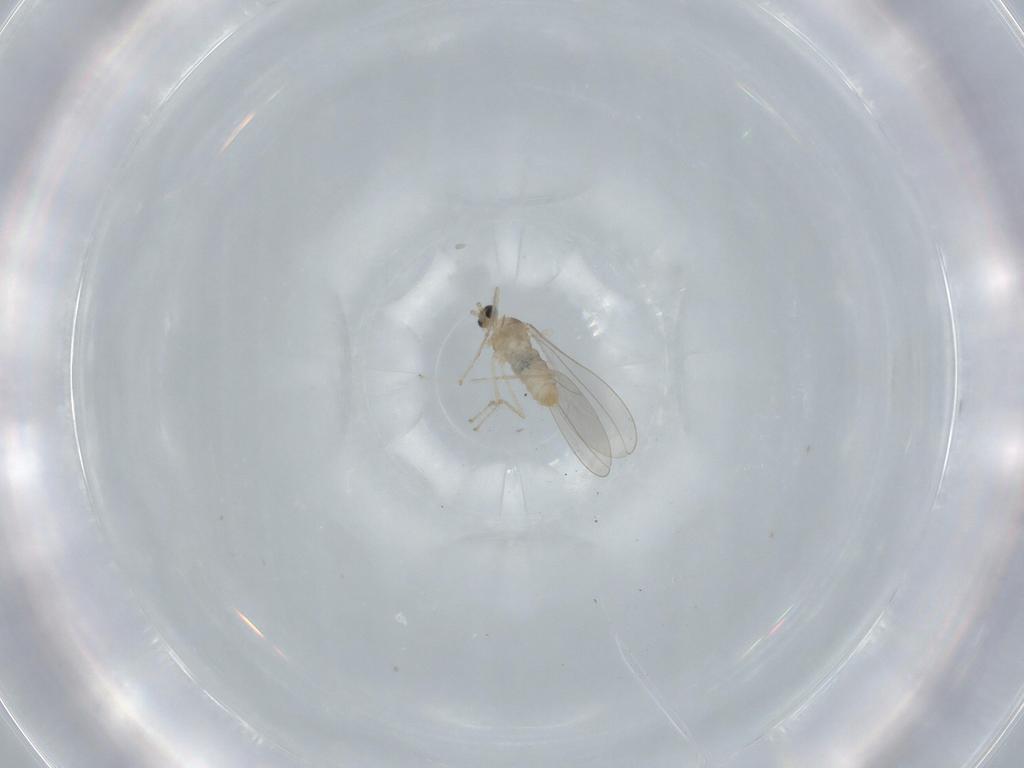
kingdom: Animalia
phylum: Arthropoda
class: Insecta
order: Diptera
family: Cecidomyiidae
